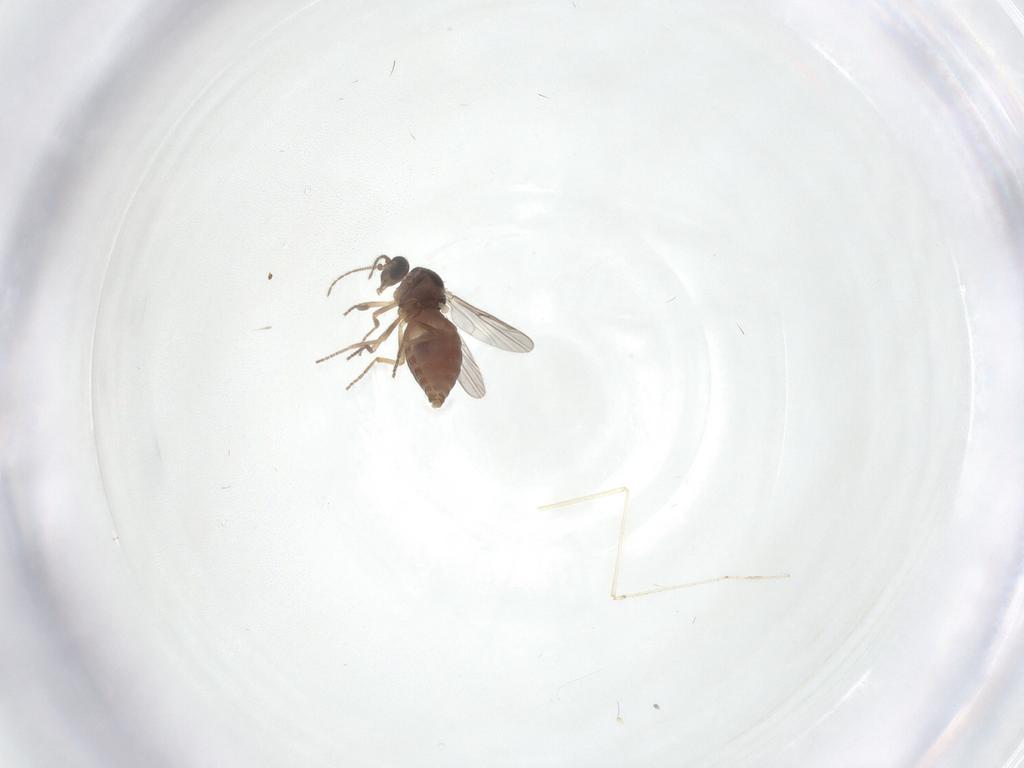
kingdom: Animalia
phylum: Arthropoda
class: Insecta
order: Diptera
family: Ceratopogonidae
